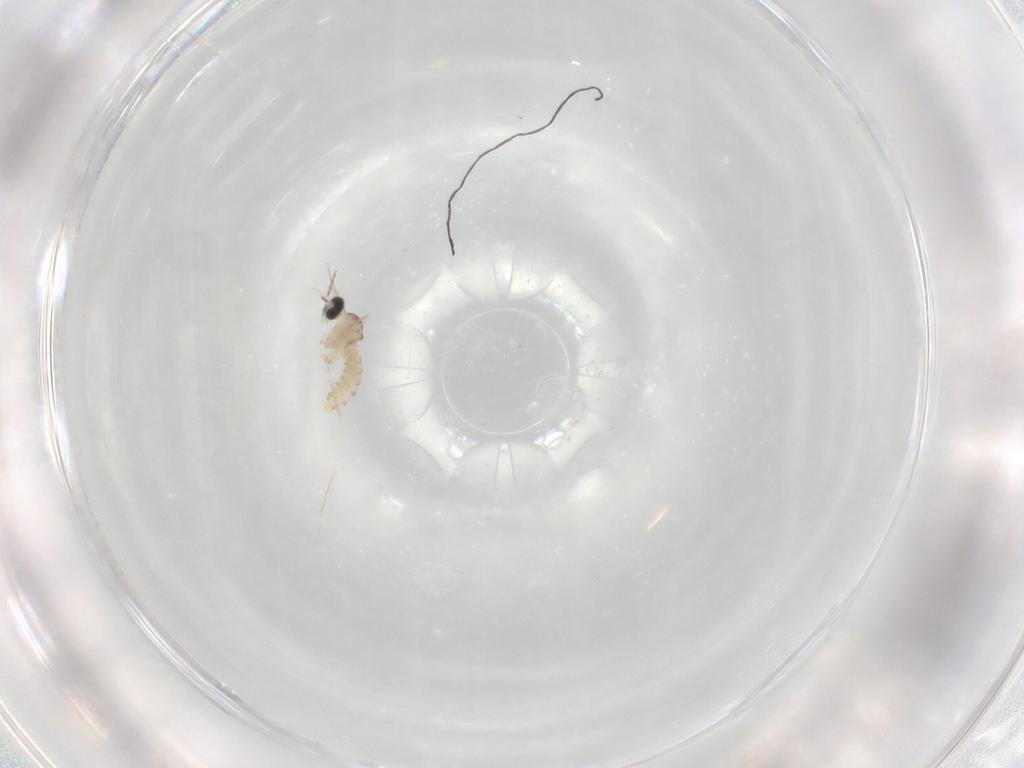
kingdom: Animalia
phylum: Arthropoda
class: Insecta
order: Diptera
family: Cecidomyiidae
